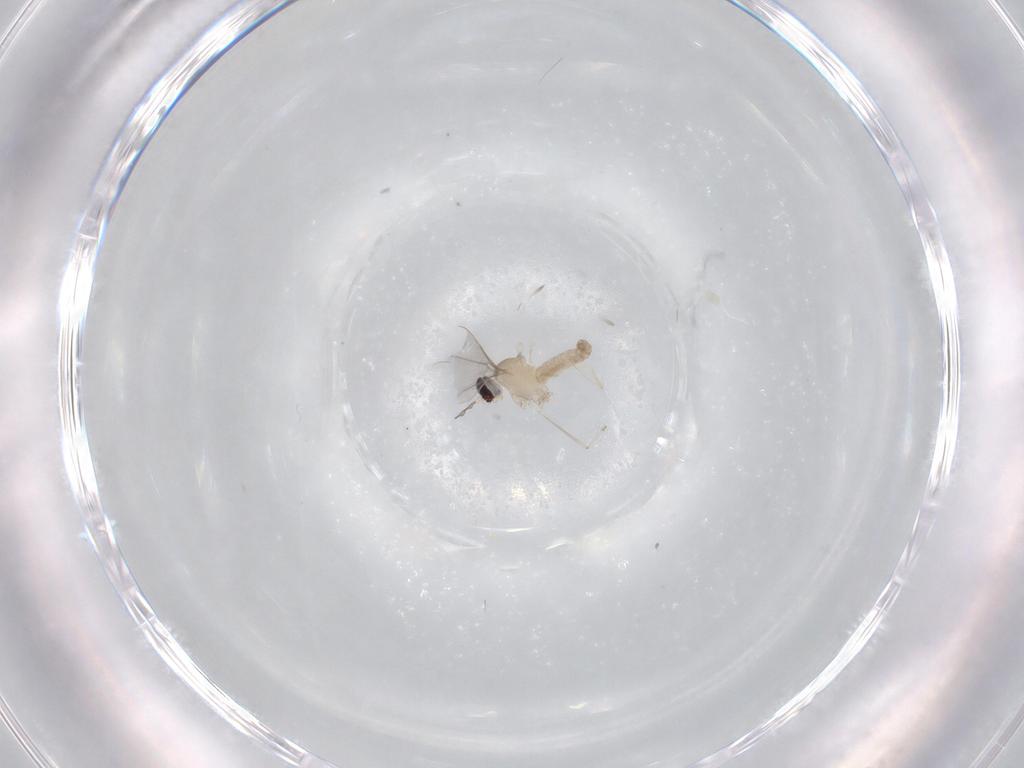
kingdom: Animalia
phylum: Arthropoda
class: Insecta
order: Diptera
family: Cecidomyiidae
